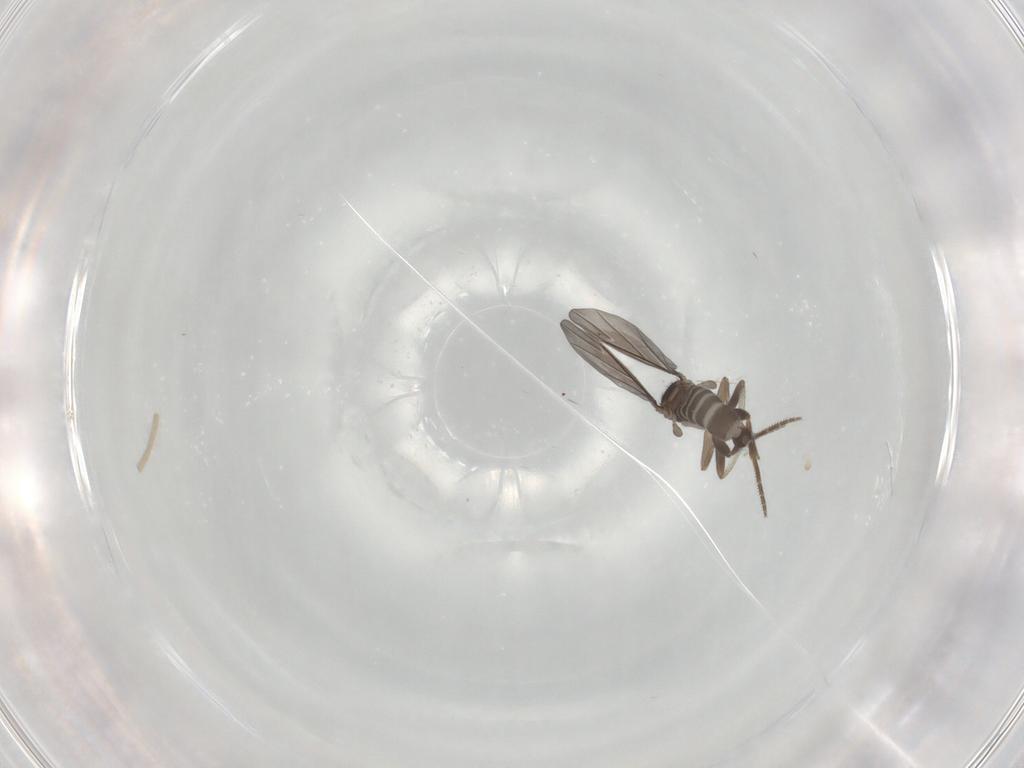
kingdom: Animalia
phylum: Arthropoda
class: Insecta
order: Diptera
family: Phoridae
